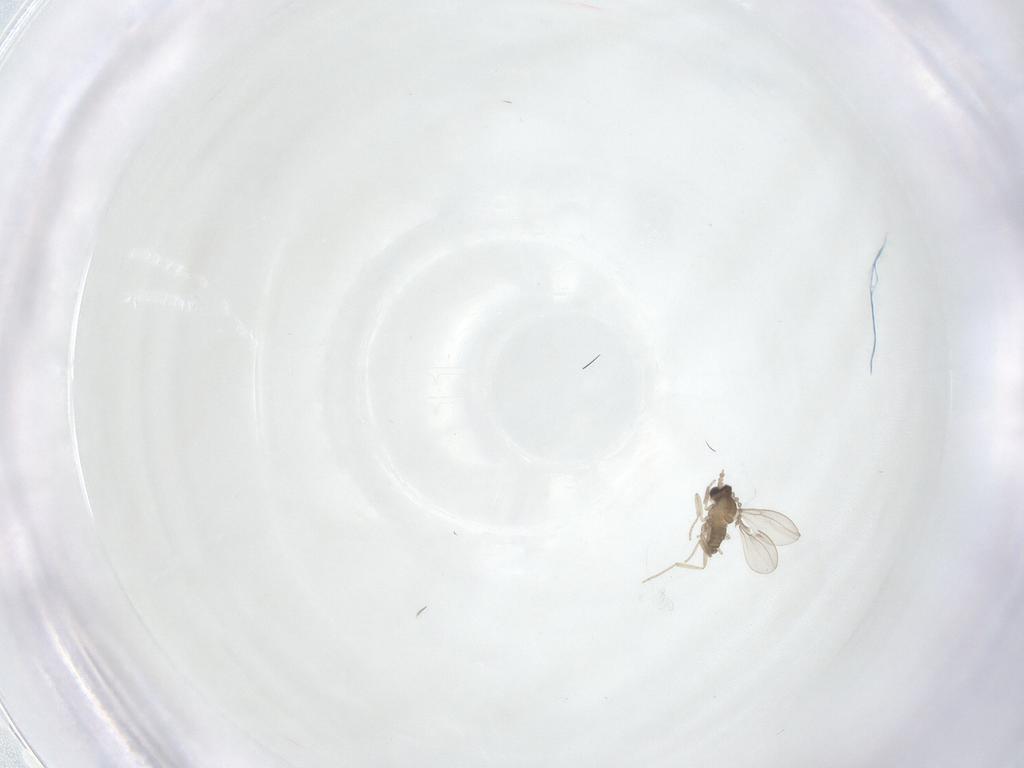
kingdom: Animalia
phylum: Arthropoda
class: Insecta
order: Diptera
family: Cecidomyiidae
